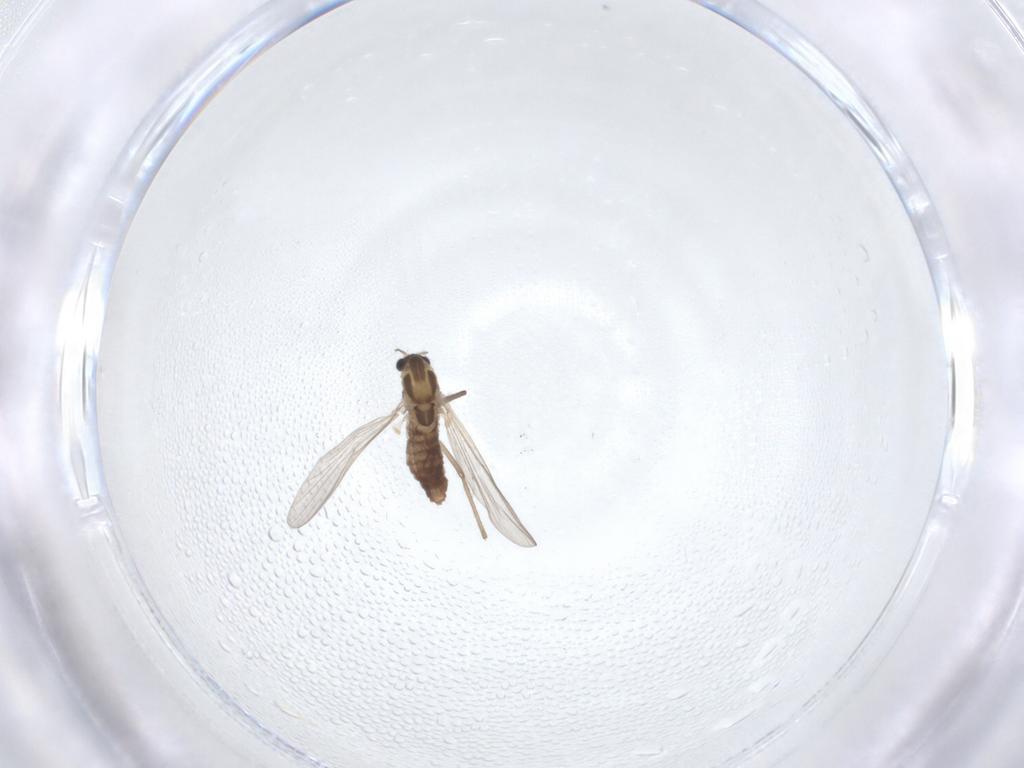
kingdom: Animalia
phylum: Arthropoda
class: Insecta
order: Diptera
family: Chironomidae
